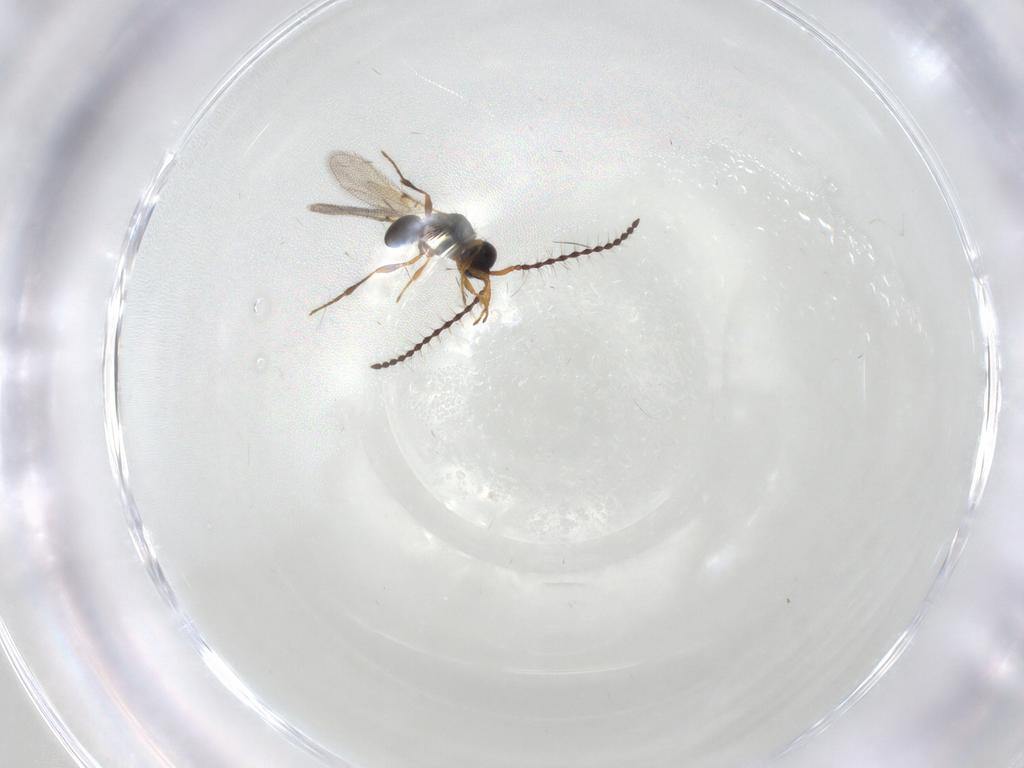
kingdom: Animalia
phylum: Arthropoda
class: Insecta
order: Hymenoptera
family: Diapriidae
